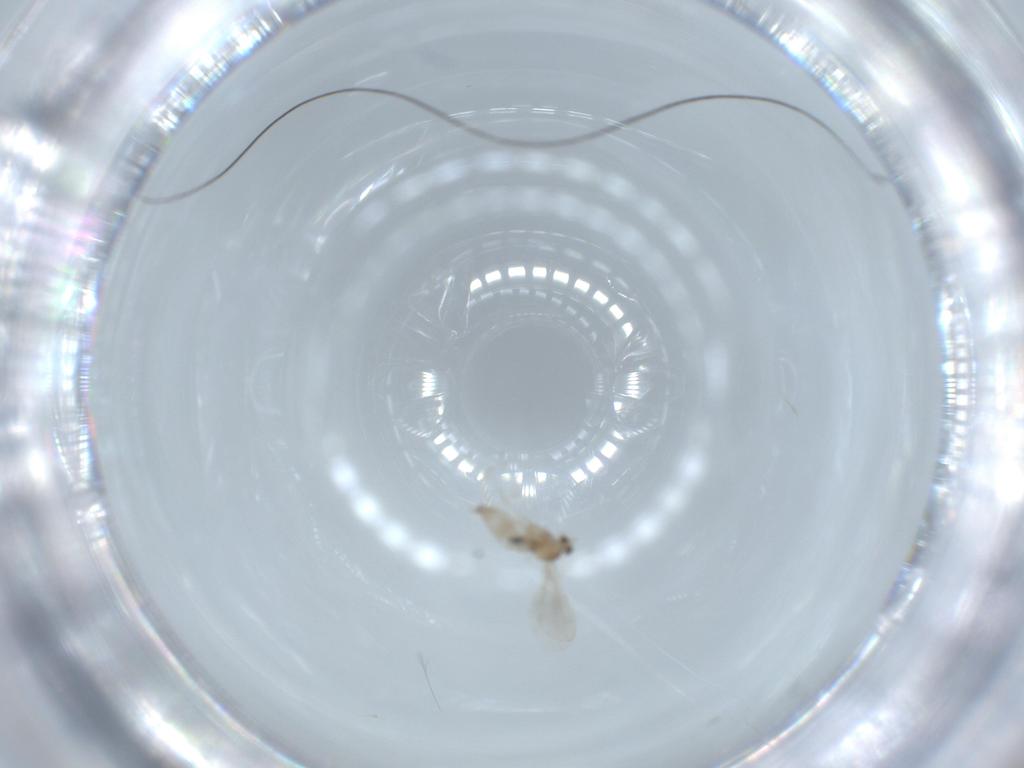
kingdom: Animalia
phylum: Arthropoda
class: Insecta
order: Diptera
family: Cecidomyiidae
